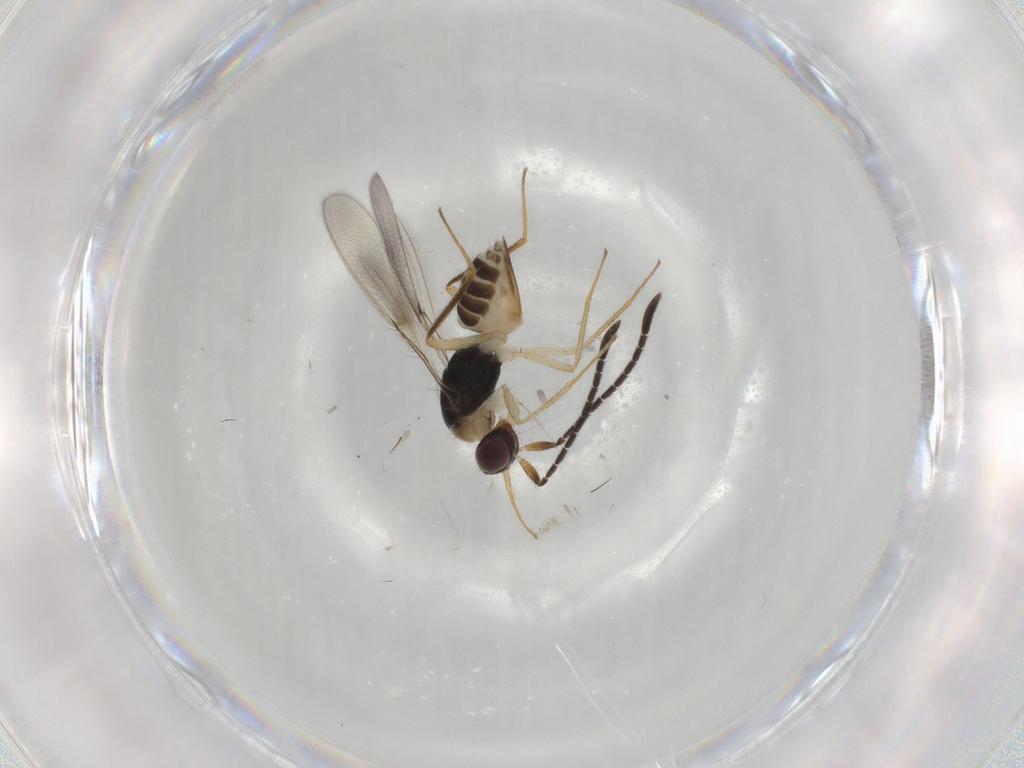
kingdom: Animalia
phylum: Arthropoda
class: Insecta
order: Hymenoptera
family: Mymaridae
